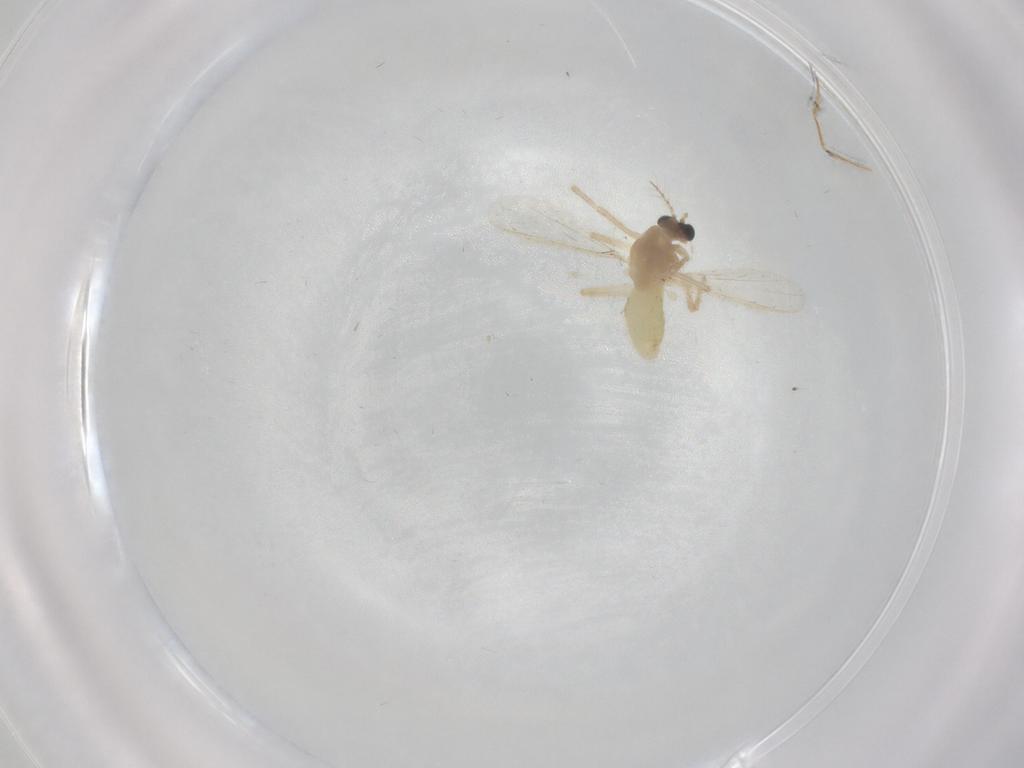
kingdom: Animalia
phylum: Arthropoda
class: Insecta
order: Diptera
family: Chironomidae
